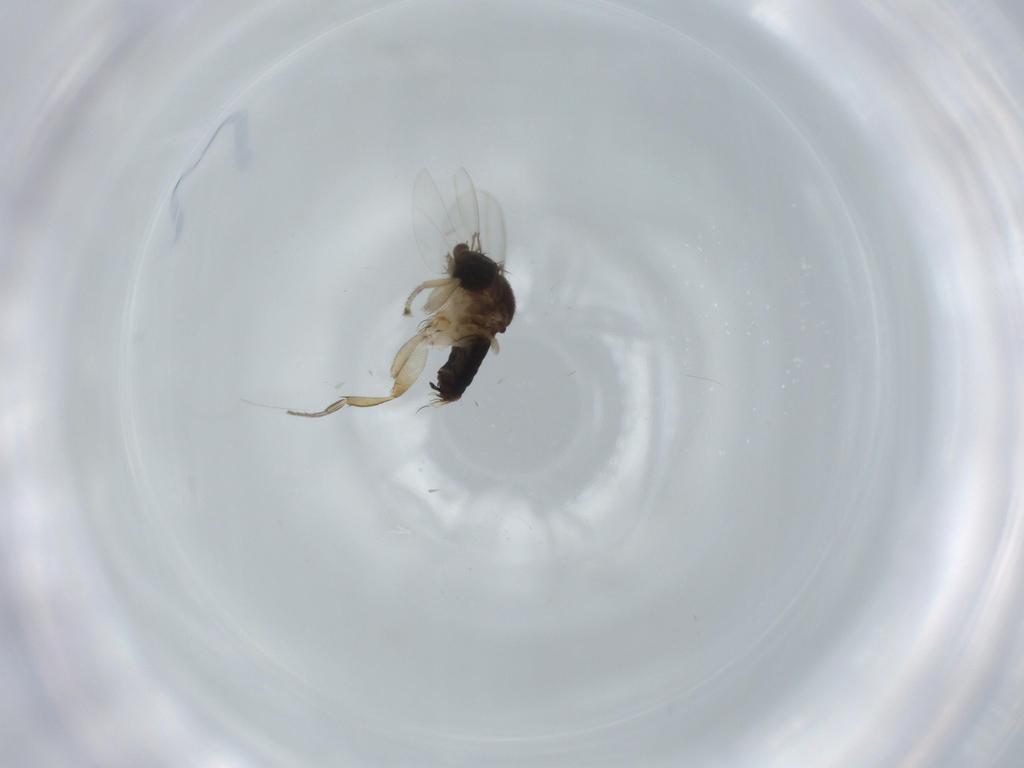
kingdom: Animalia
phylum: Arthropoda
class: Insecta
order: Diptera
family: Phoridae
